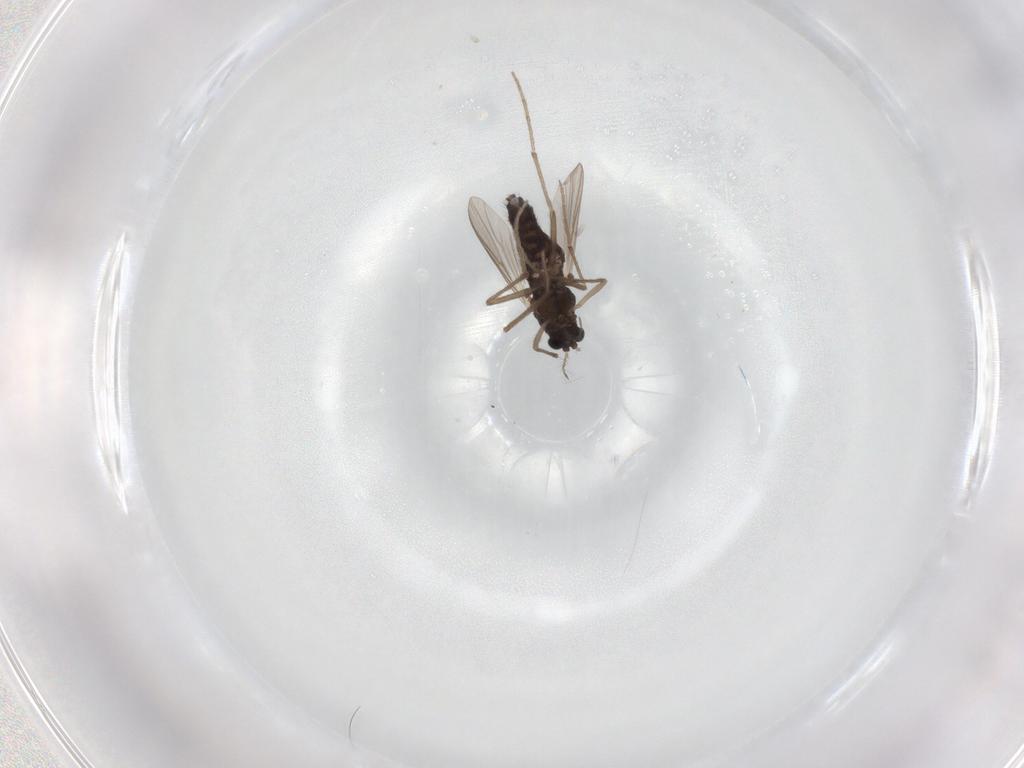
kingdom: Animalia
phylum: Arthropoda
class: Insecta
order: Diptera
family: Chironomidae
